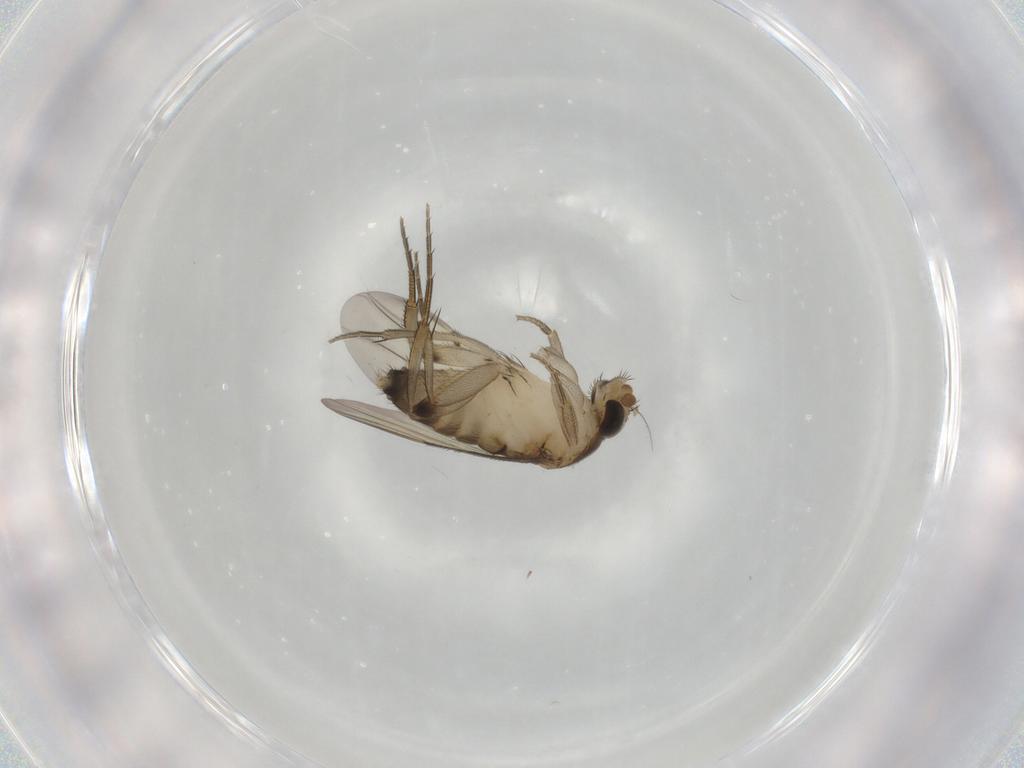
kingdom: Animalia
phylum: Arthropoda
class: Insecta
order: Diptera
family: Phoridae
